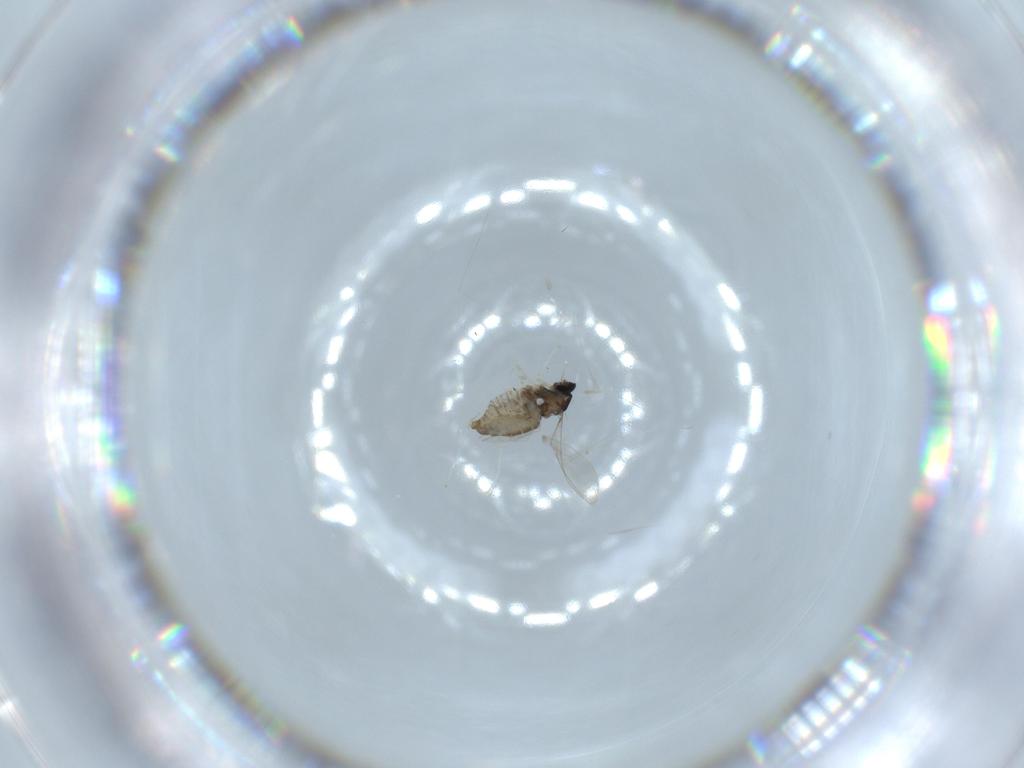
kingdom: Animalia
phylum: Arthropoda
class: Insecta
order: Diptera
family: Cecidomyiidae
